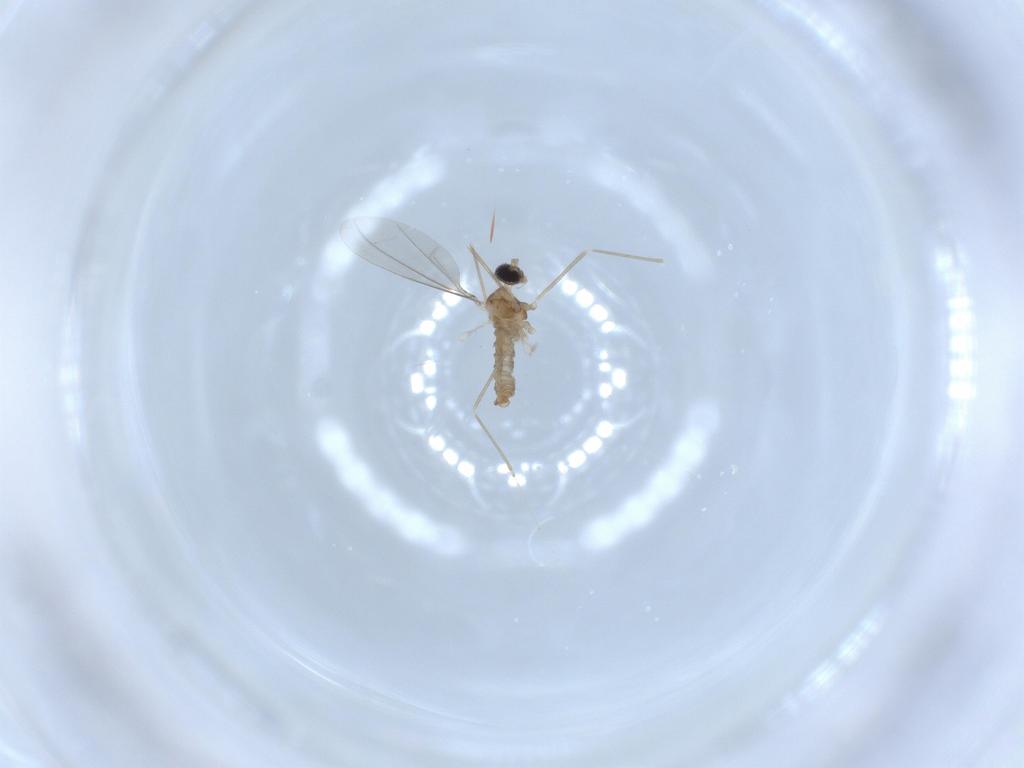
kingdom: Animalia
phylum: Arthropoda
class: Insecta
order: Diptera
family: Cecidomyiidae
